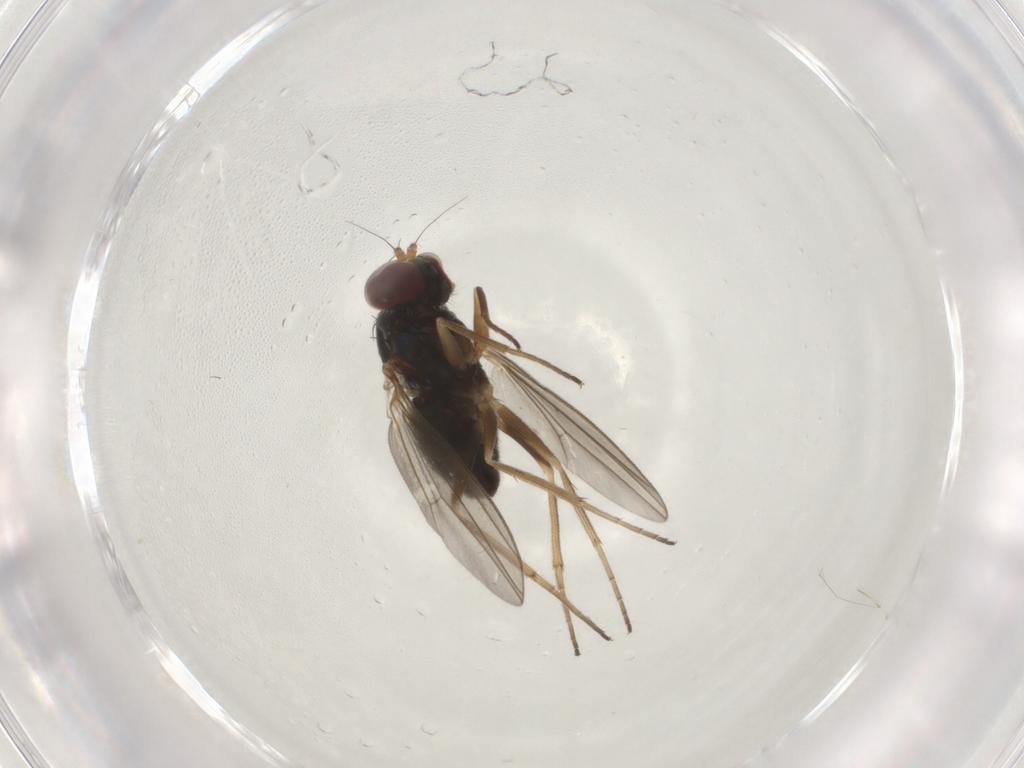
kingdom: Animalia
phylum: Arthropoda
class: Insecta
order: Diptera
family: Dolichopodidae
